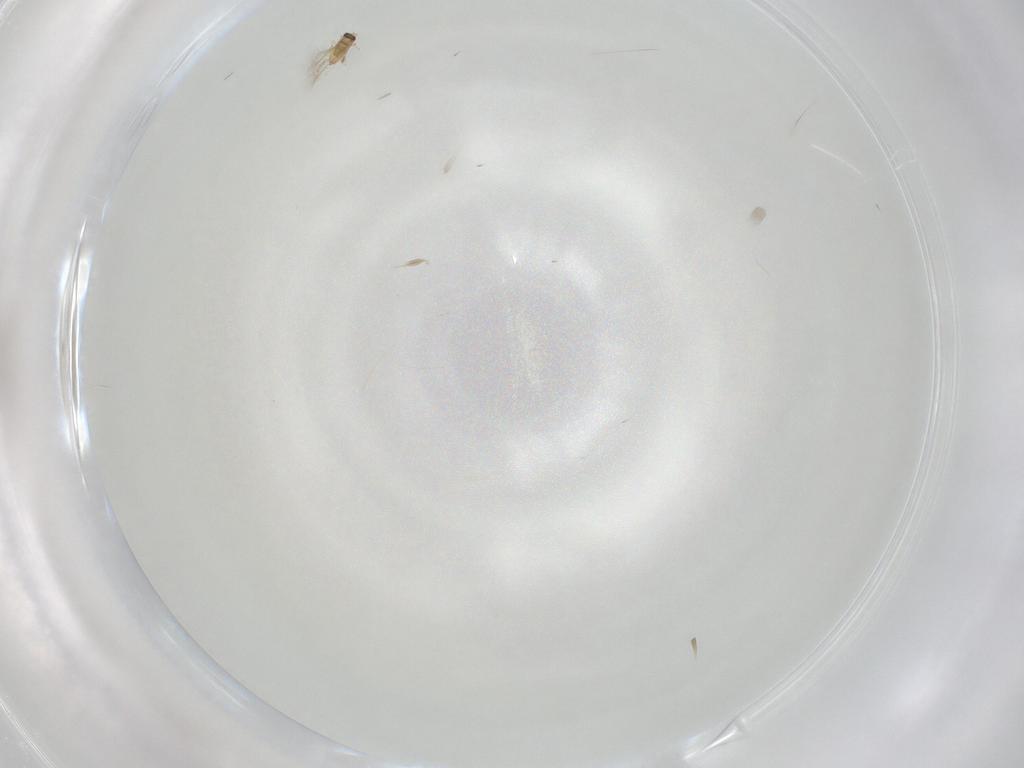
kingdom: Animalia
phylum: Arthropoda
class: Insecta
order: Hymenoptera
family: Mymaridae
